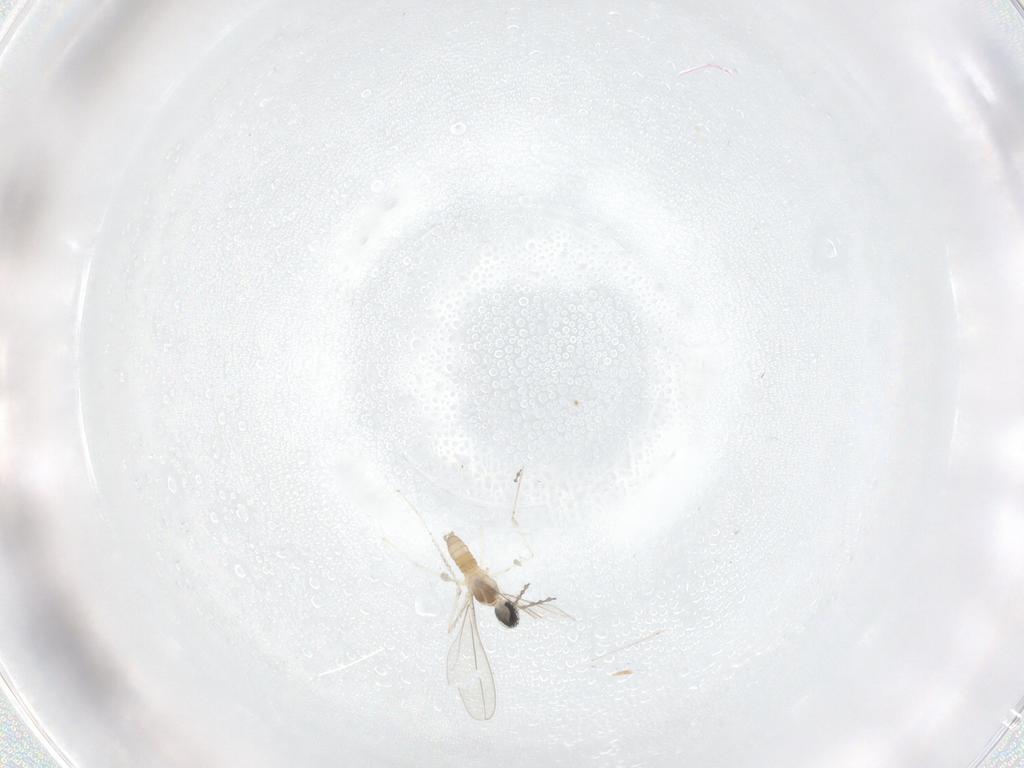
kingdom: Animalia
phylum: Arthropoda
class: Insecta
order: Diptera
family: Cecidomyiidae
